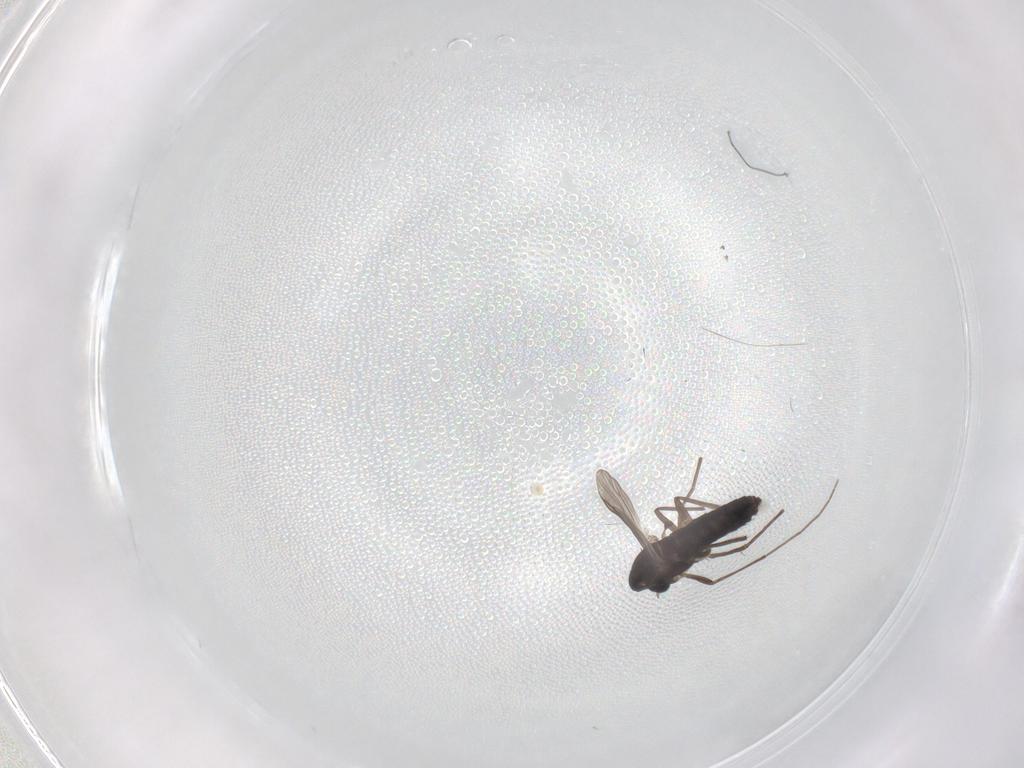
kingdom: Animalia
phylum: Arthropoda
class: Insecta
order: Diptera
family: Chironomidae
